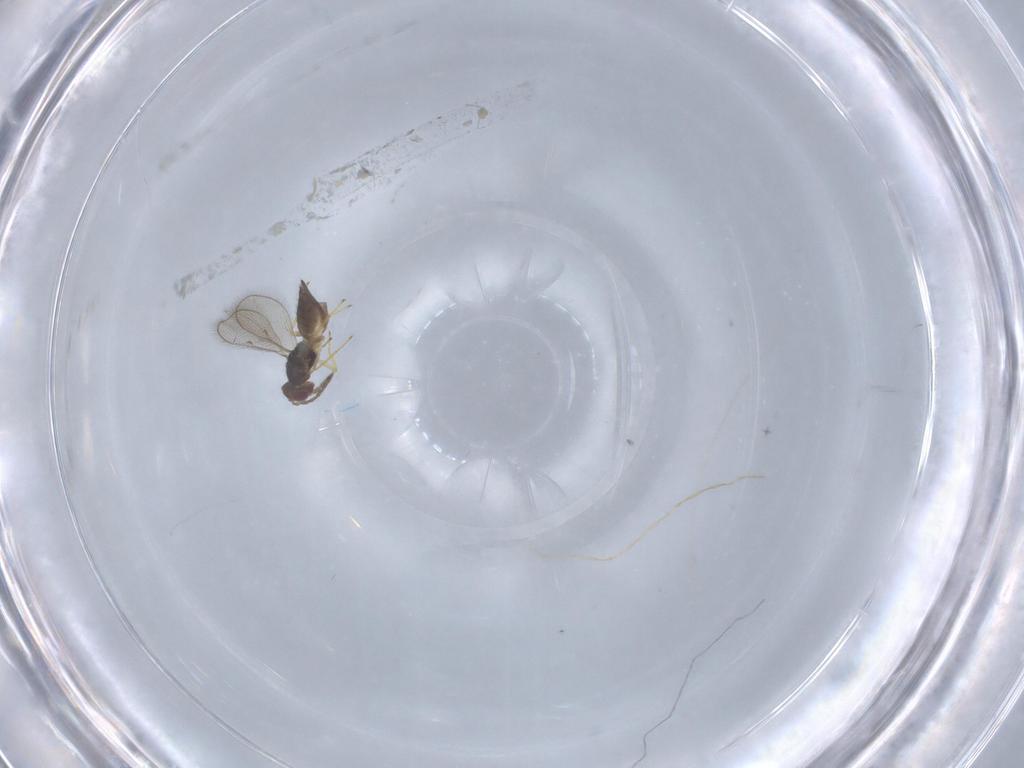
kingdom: Animalia
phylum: Arthropoda
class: Insecta
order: Hymenoptera
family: Eulophidae
